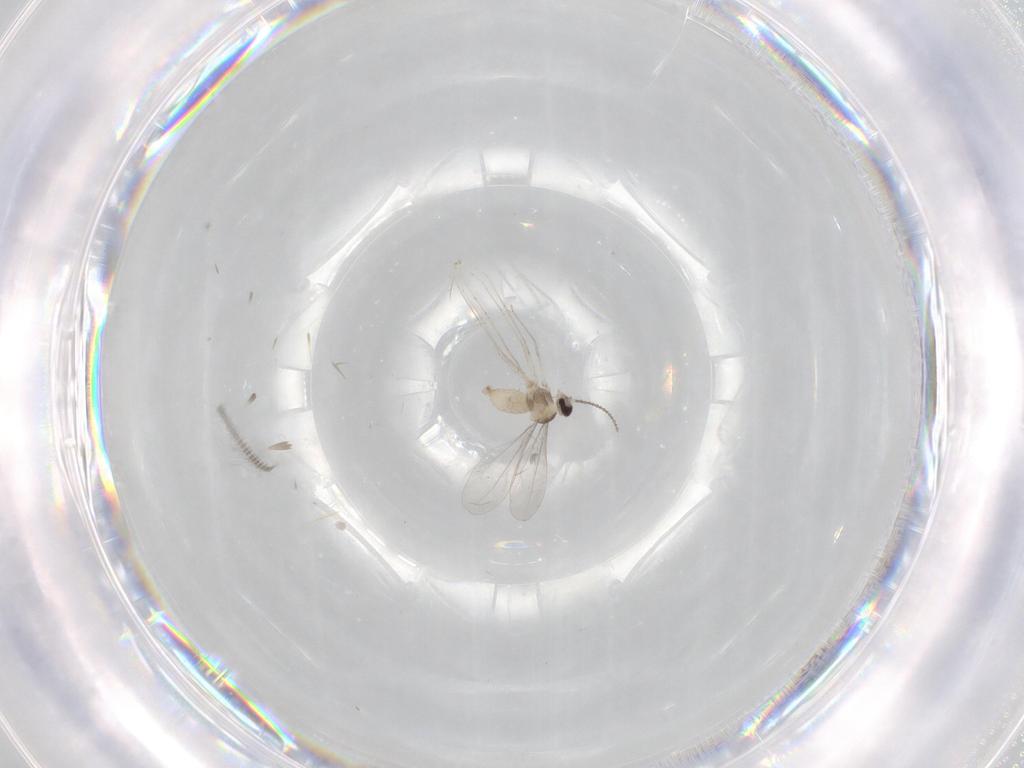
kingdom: Animalia
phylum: Arthropoda
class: Insecta
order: Diptera
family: Cecidomyiidae
